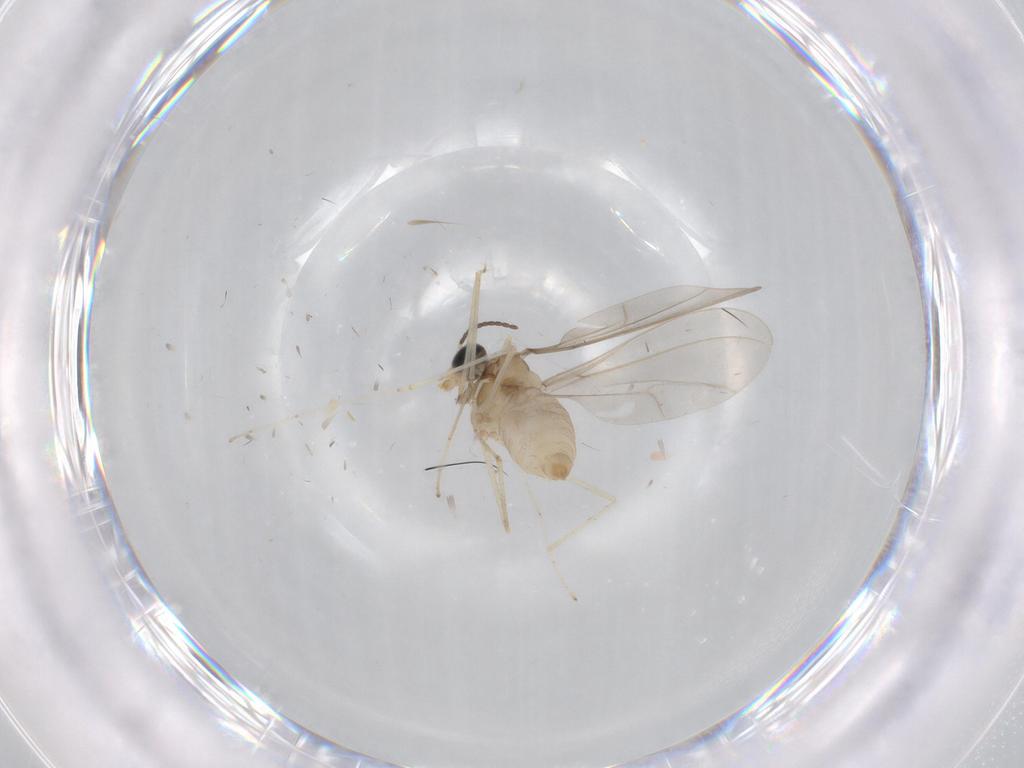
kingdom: Animalia
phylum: Arthropoda
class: Insecta
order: Diptera
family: Cecidomyiidae
